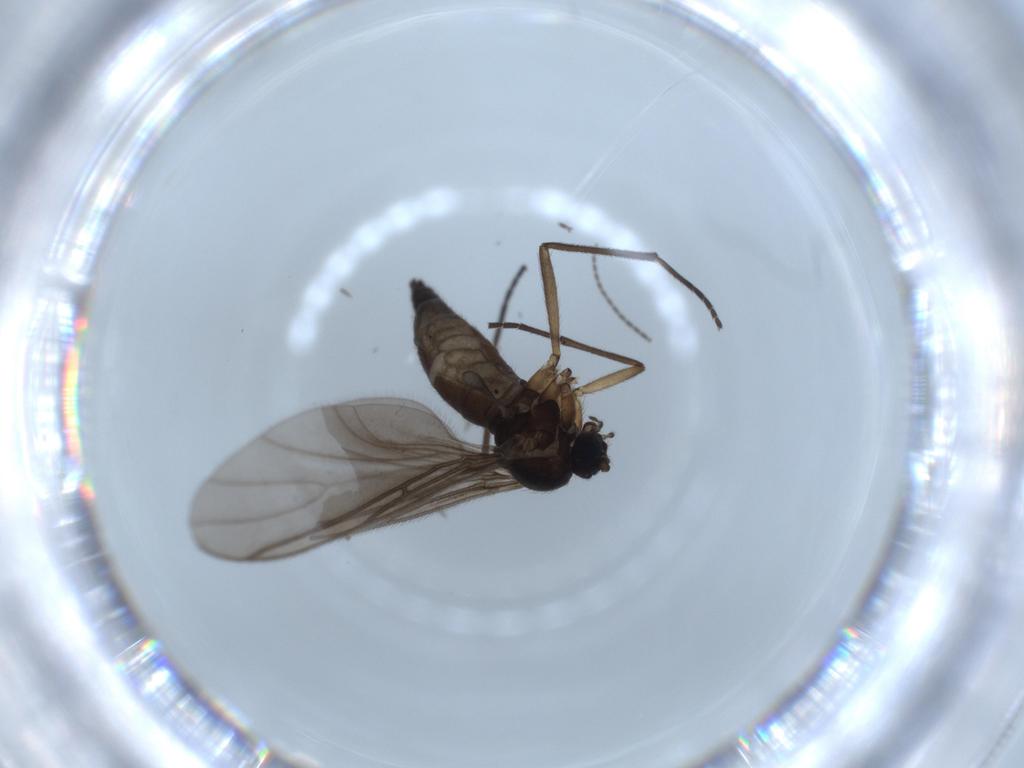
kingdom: Animalia
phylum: Arthropoda
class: Insecta
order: Diptera
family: Sciaridae
